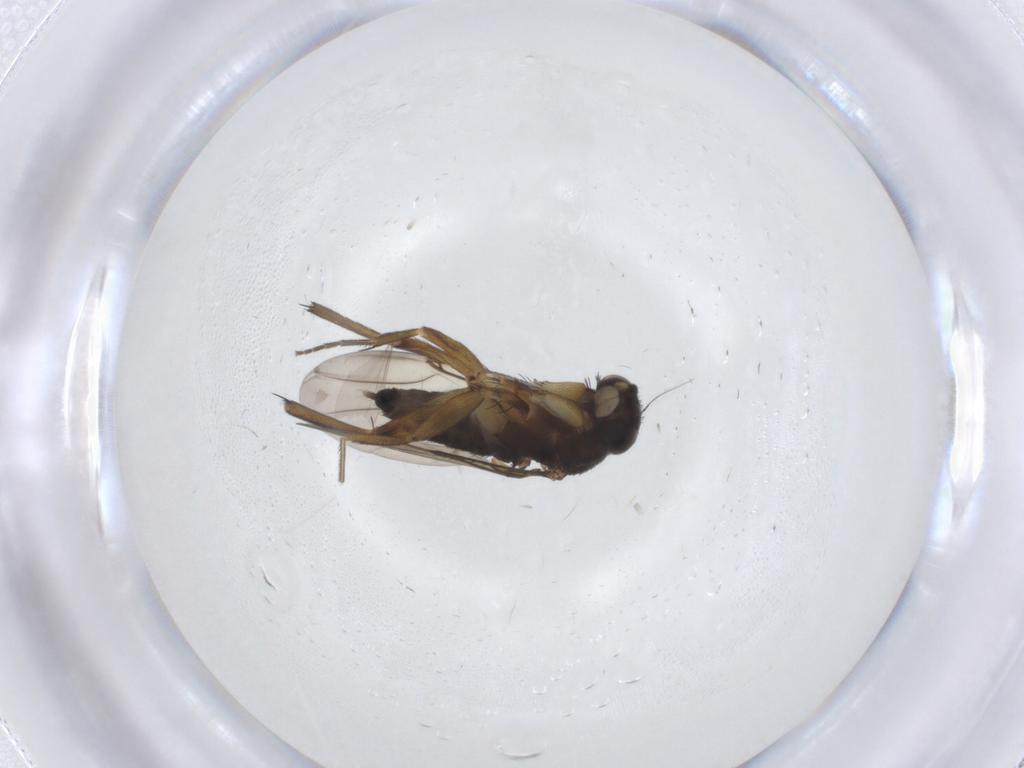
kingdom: Animalia
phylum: Arthropoda
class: Insecta
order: Diptera
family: Phoridae
